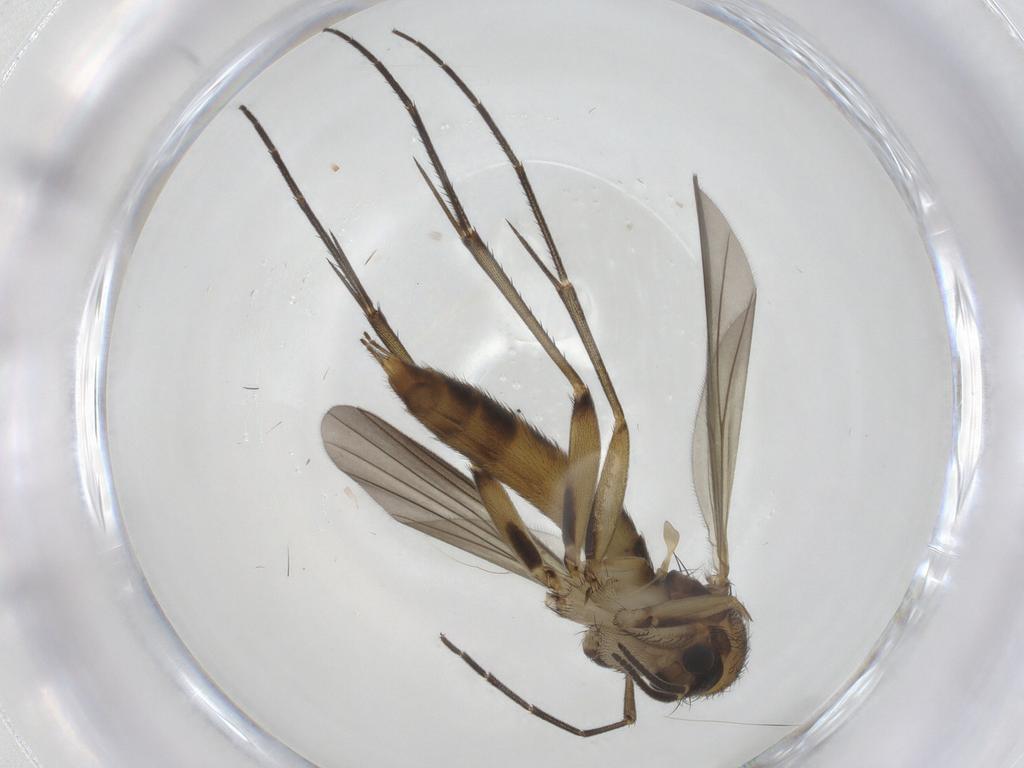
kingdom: Animalia
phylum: Arthropoda
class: Insecta
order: Diptera
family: Mycetophilidae
